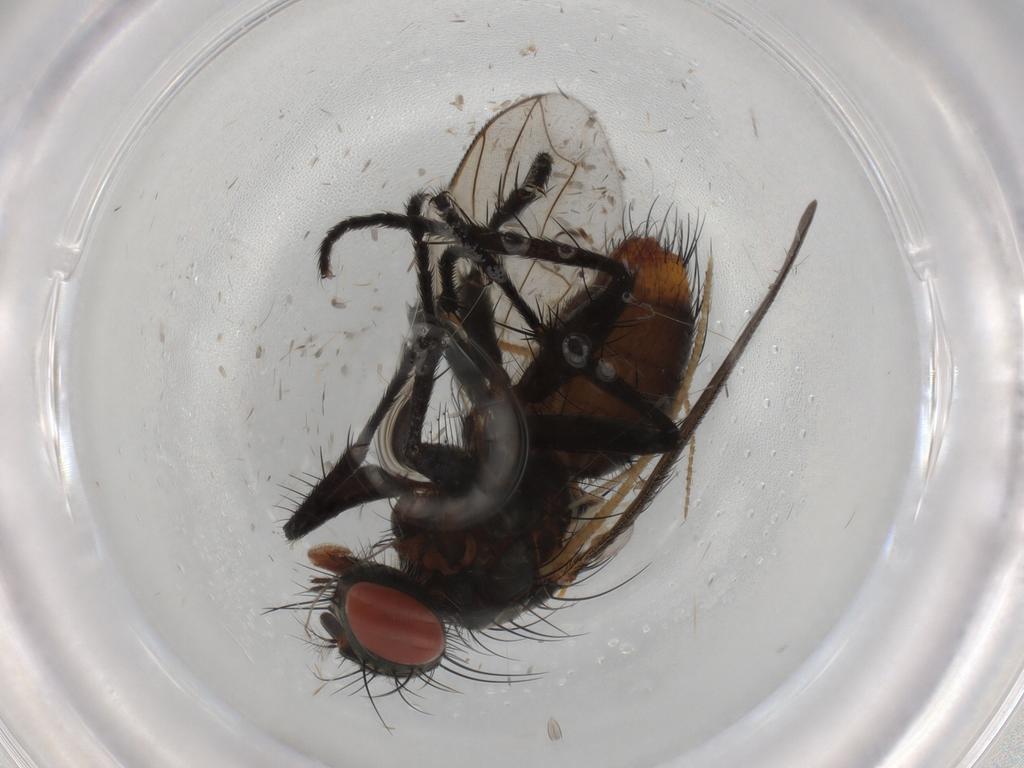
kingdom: Animalia
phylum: Arthropoda
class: Insecta
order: Diptera
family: Sarcophagidae
